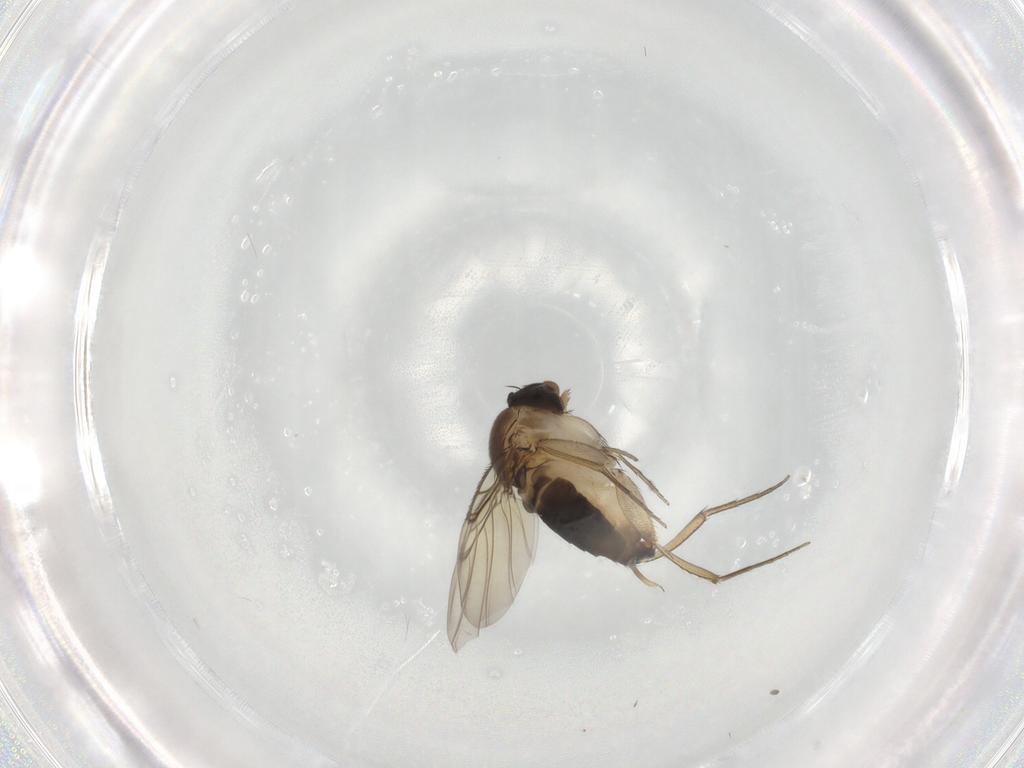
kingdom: Animalia
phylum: Arthropoda
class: Insecta
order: Diptera
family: Phoridae
